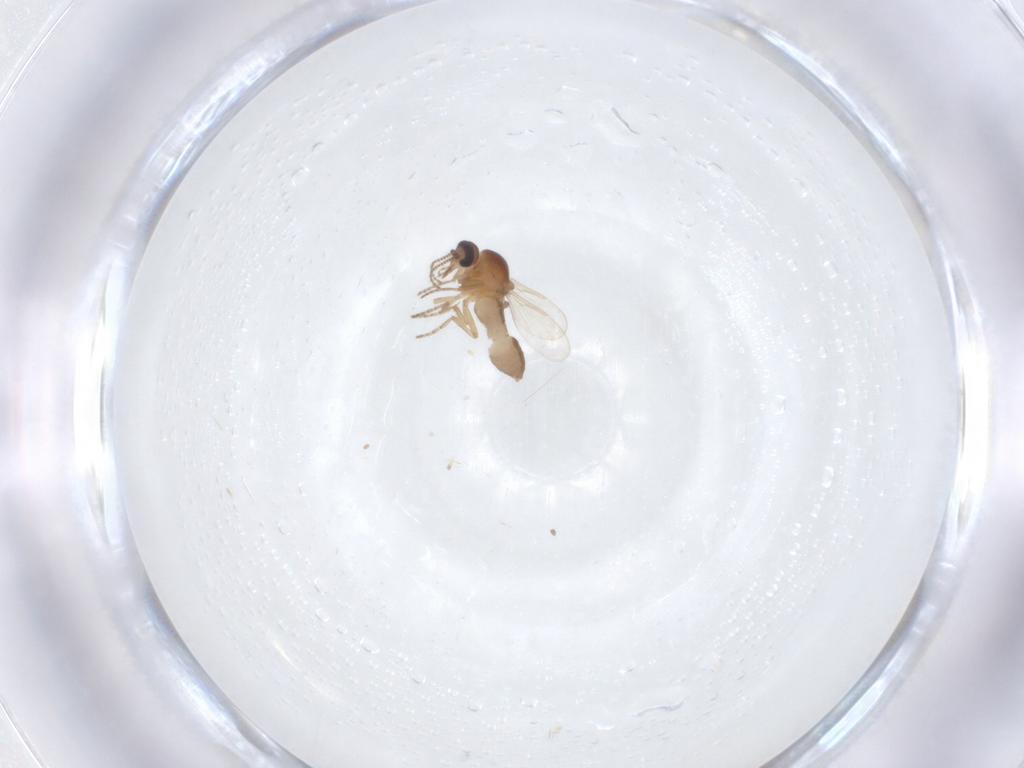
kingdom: Animalia
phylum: Arthropoda
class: Insecta
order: Diptera
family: Ceratopogonidae
